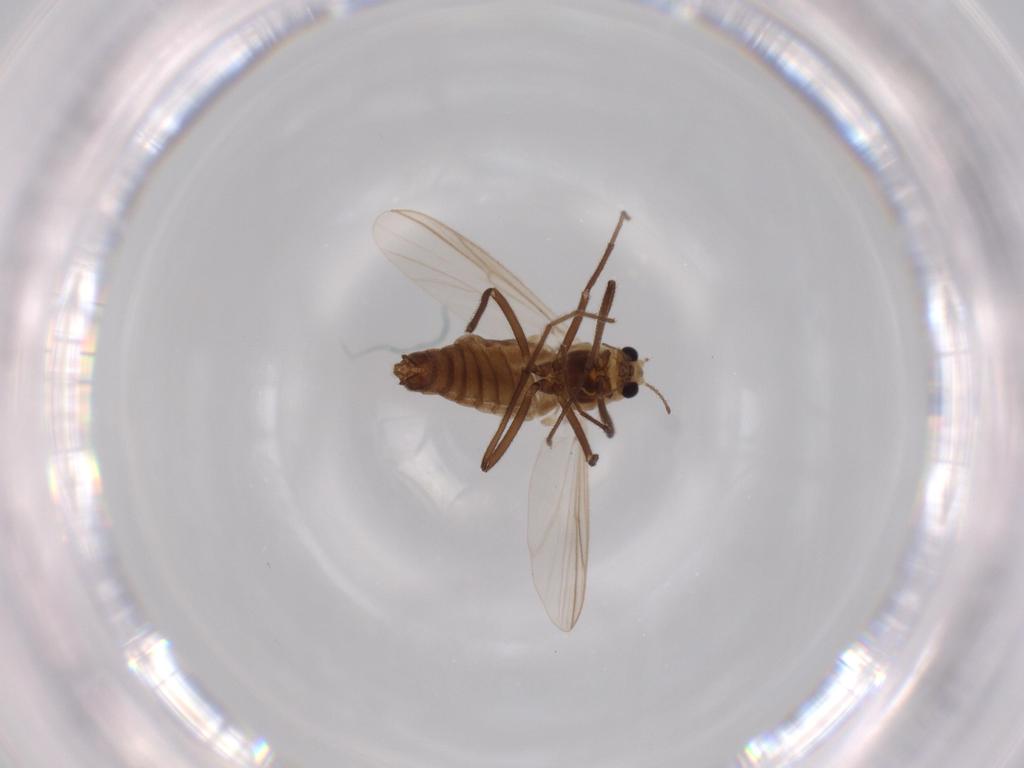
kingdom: Animalia
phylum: Arthropoda
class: Insecta
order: Diptera
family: Chironomidae
